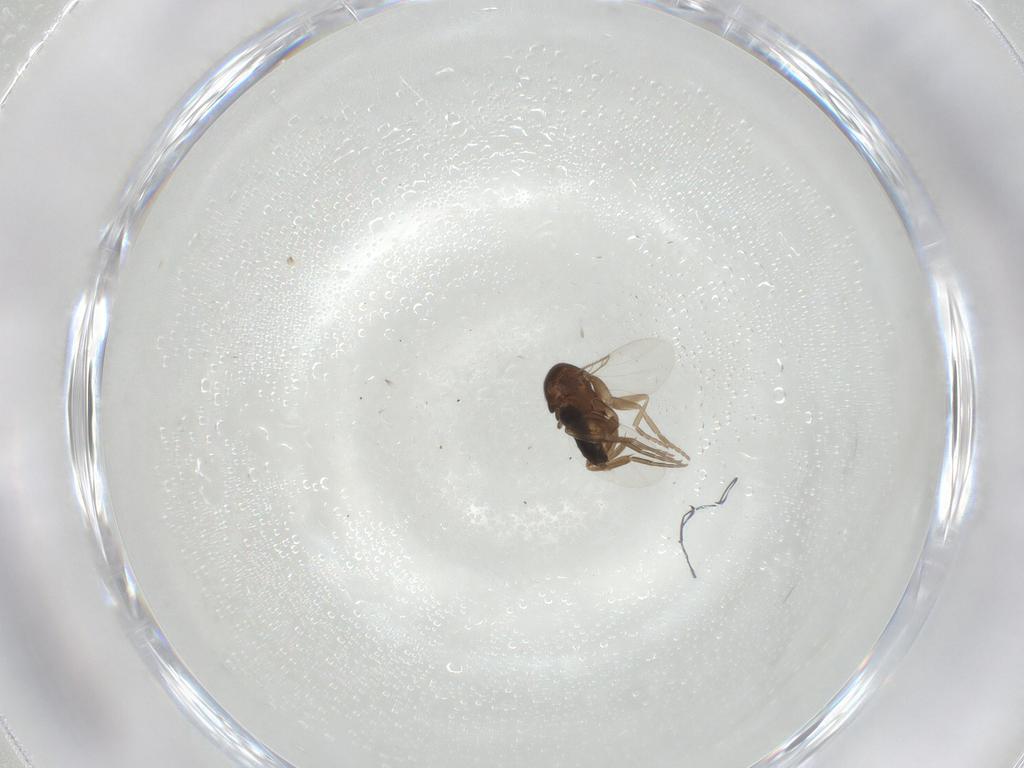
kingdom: Animalia
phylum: Arthropoda
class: Insecta
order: Diptera
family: Phoridae
